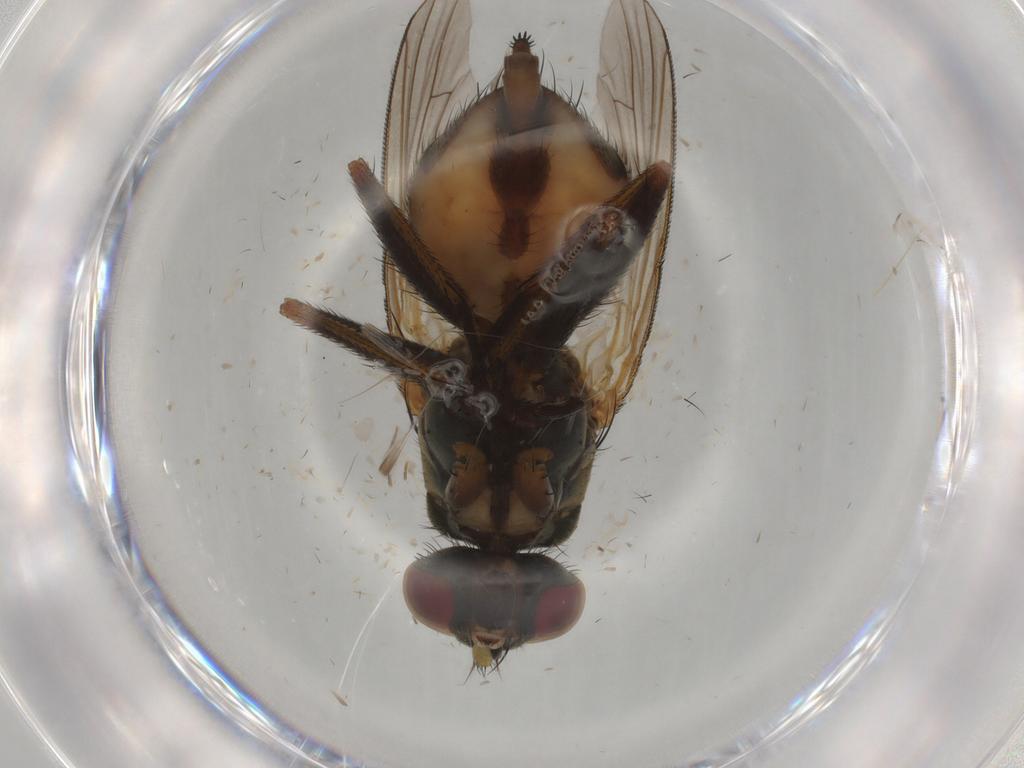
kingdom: Animalia
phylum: Arthropoda
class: Insecta
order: Diptera
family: Muscidae
